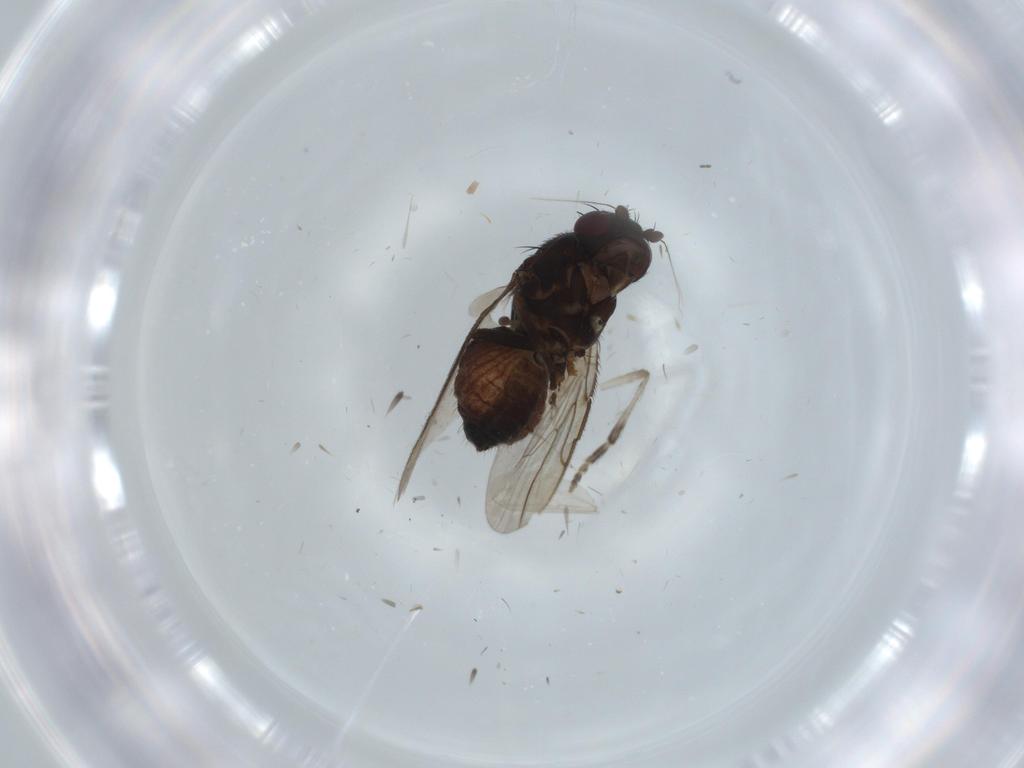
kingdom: Animalia
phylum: Arthropoda
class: Insecta
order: Diptera
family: Sphaeroceridae
